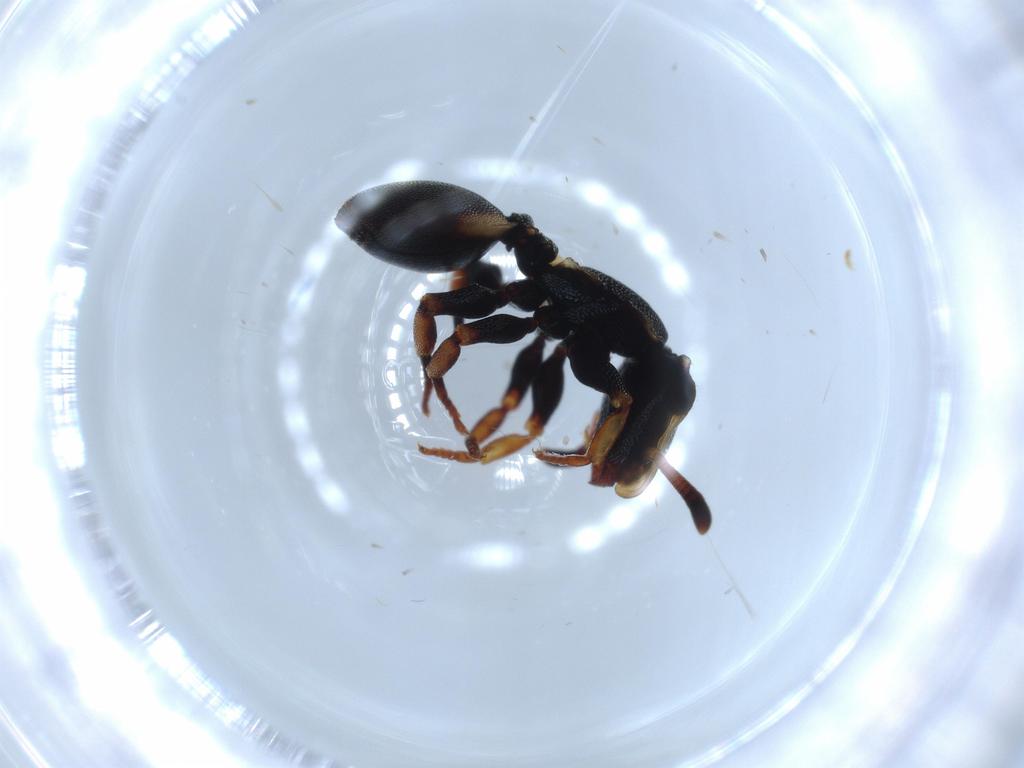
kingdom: Animalia
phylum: Arthropoda
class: Insecta
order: Hymenoptera
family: Formicidae
